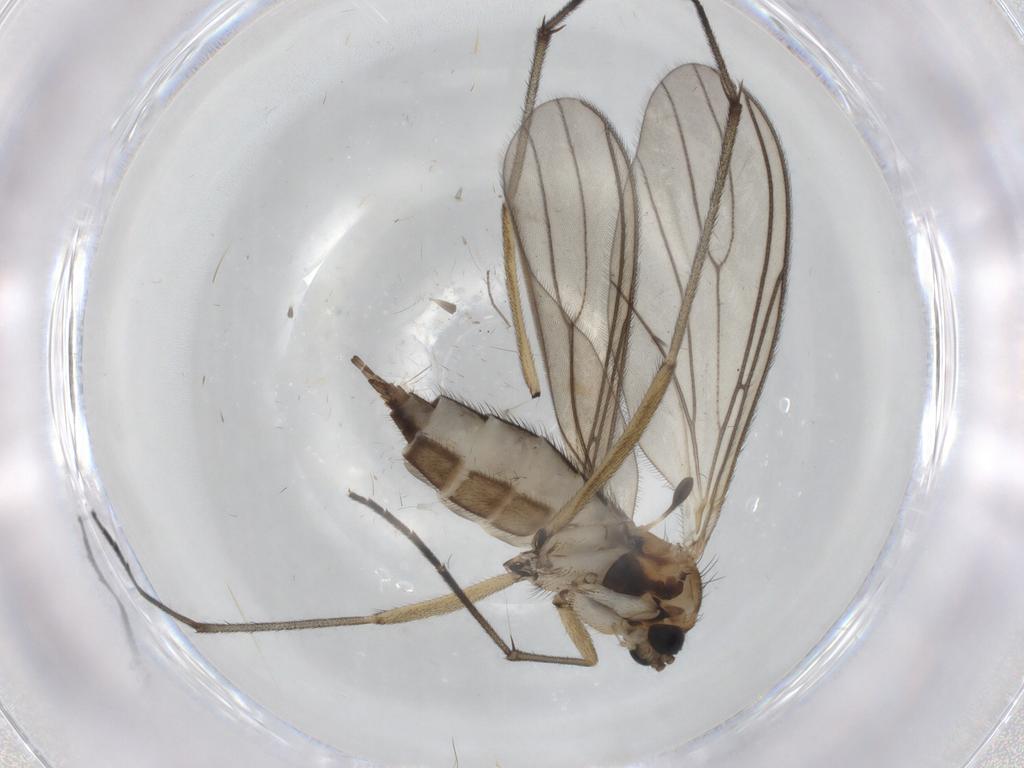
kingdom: Animalia
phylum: Arthropoda
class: Insecta
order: Diptera
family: Sciaridae
